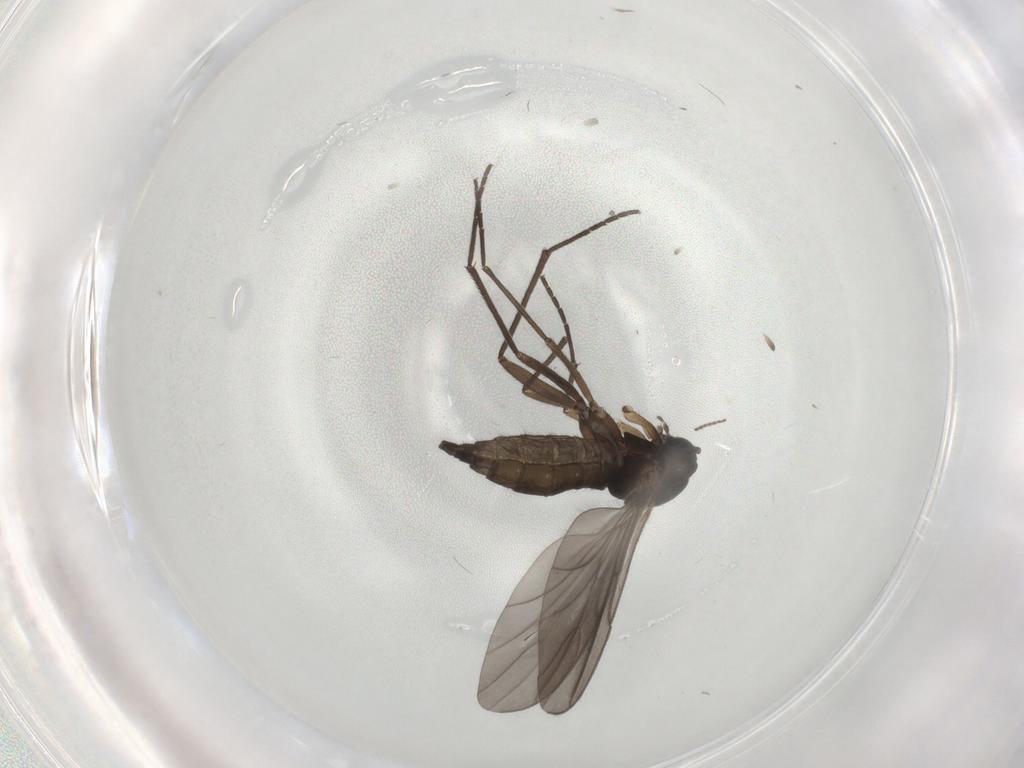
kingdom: Animalia
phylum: Arthropoda
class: Insecta
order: Diptera
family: Sciaridae
